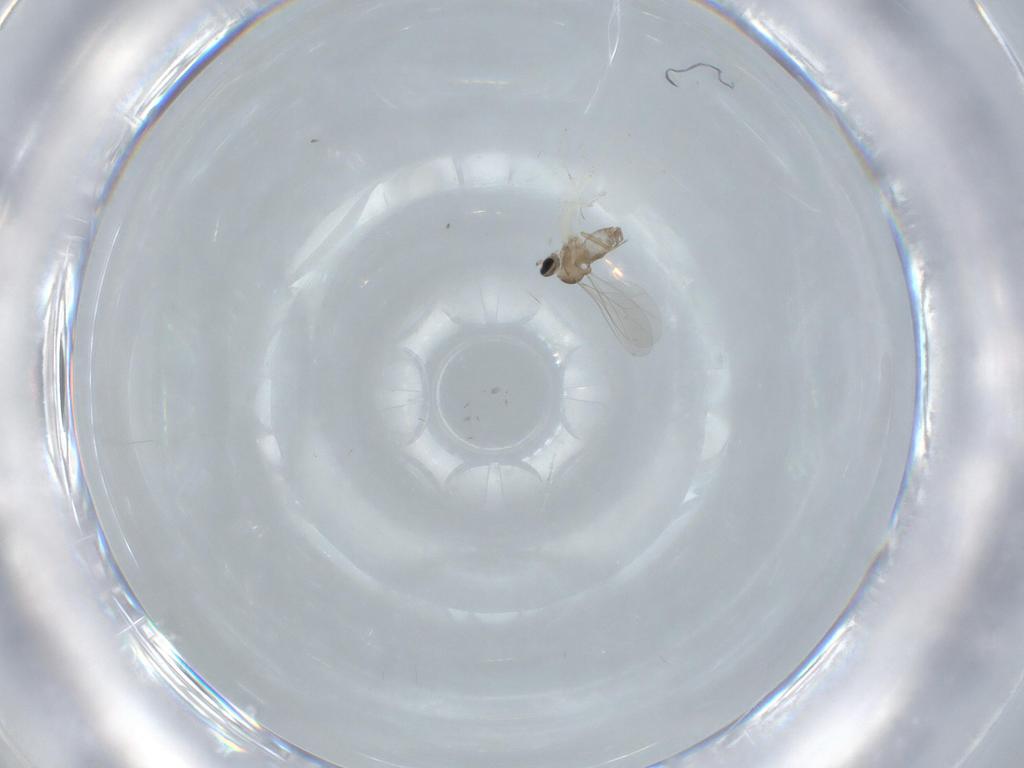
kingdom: Animalia
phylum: Arthropoda
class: Insecta
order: Diptera
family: Cecidomyiidae
